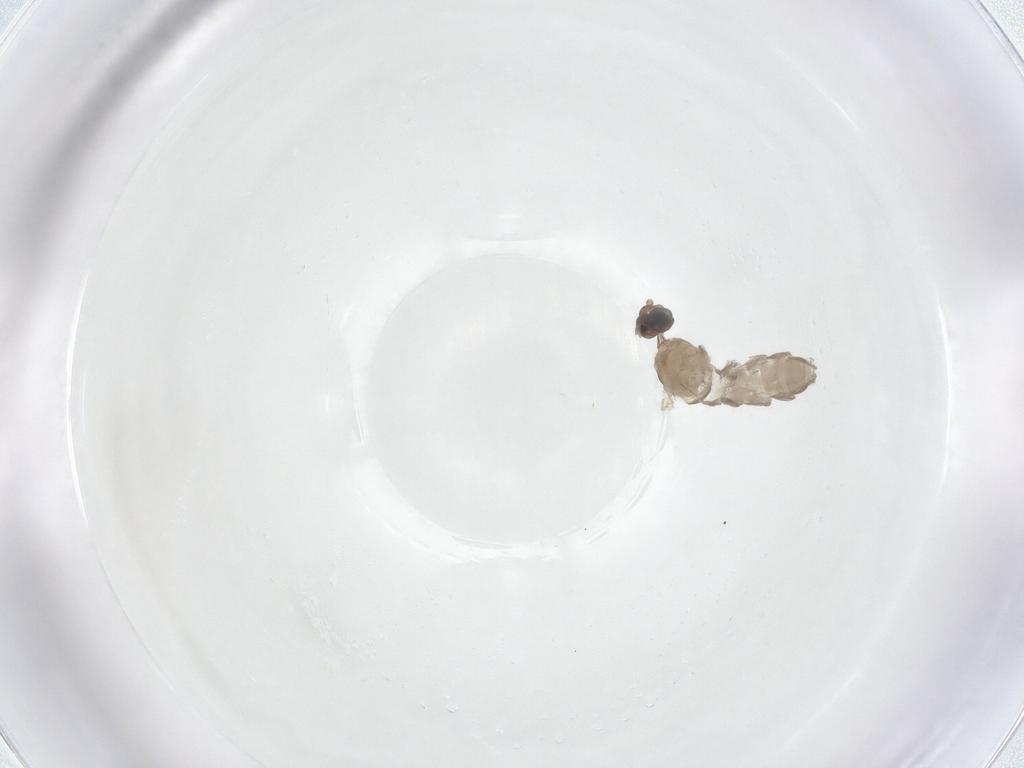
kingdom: Animalia
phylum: Arthropoda
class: Insecta
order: Diptera
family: Cecidomyiidae
